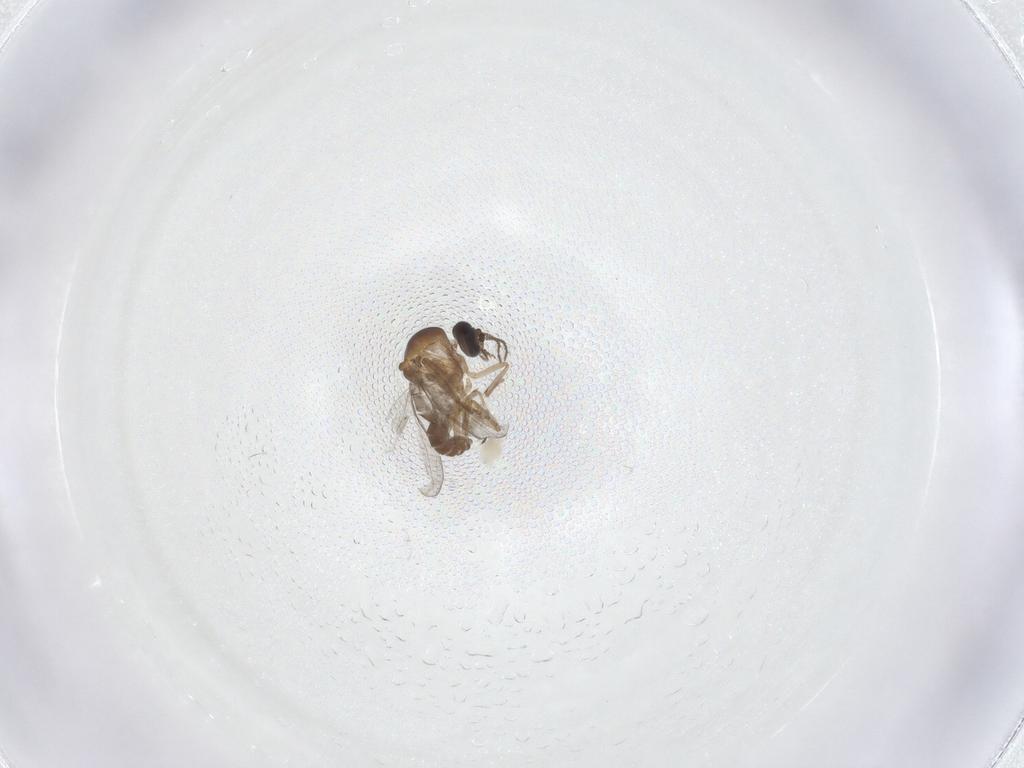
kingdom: Animalia
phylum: Arthropoda
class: Insecta
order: Diptera
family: Ceratopogonidae
